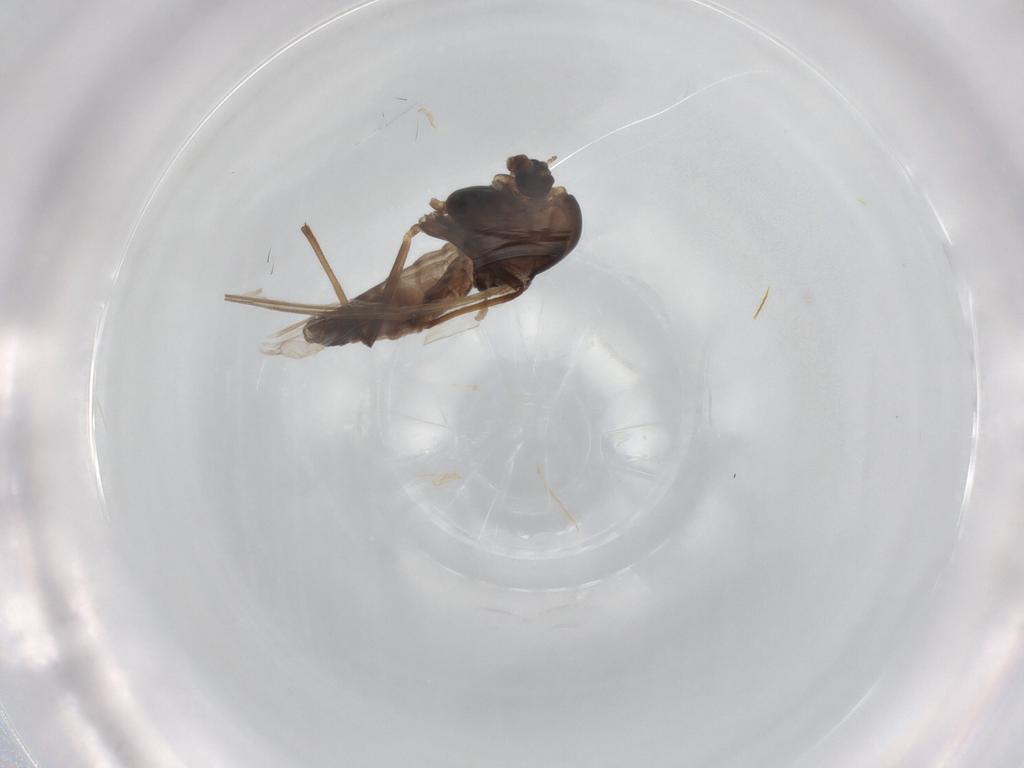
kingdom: Animalia
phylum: Arthropoda
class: Insecta
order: Diptera
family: Chironomidae
